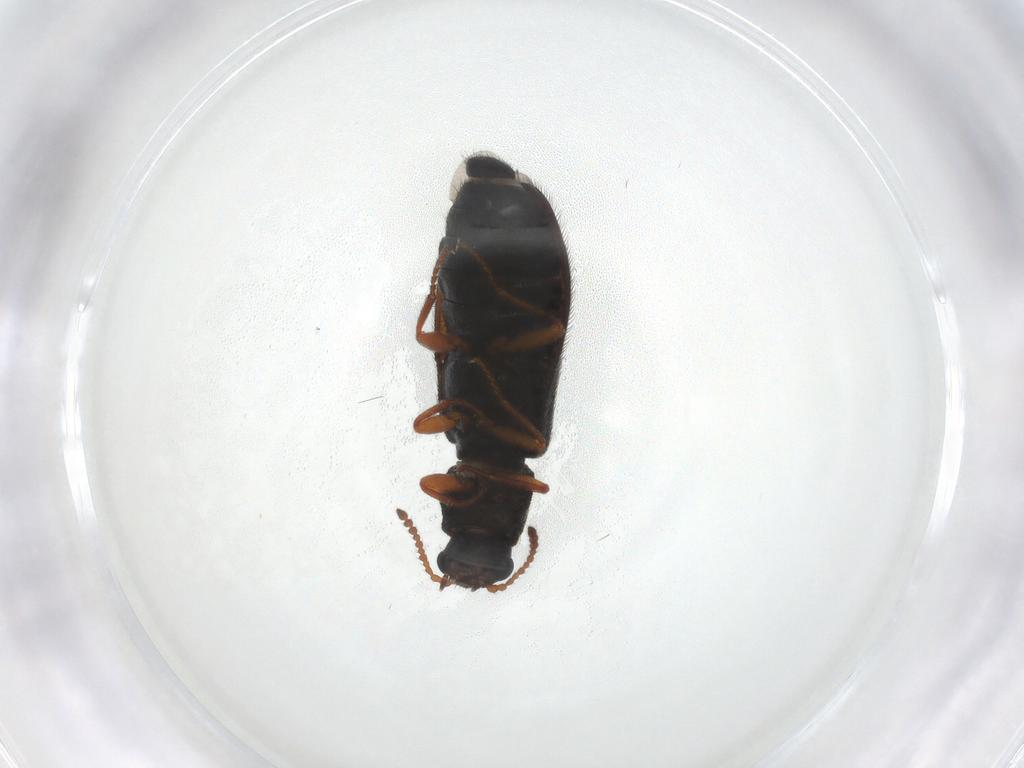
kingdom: Animalia
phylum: Arthropoda
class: Insecta
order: Coleoptera
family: Melyridae
